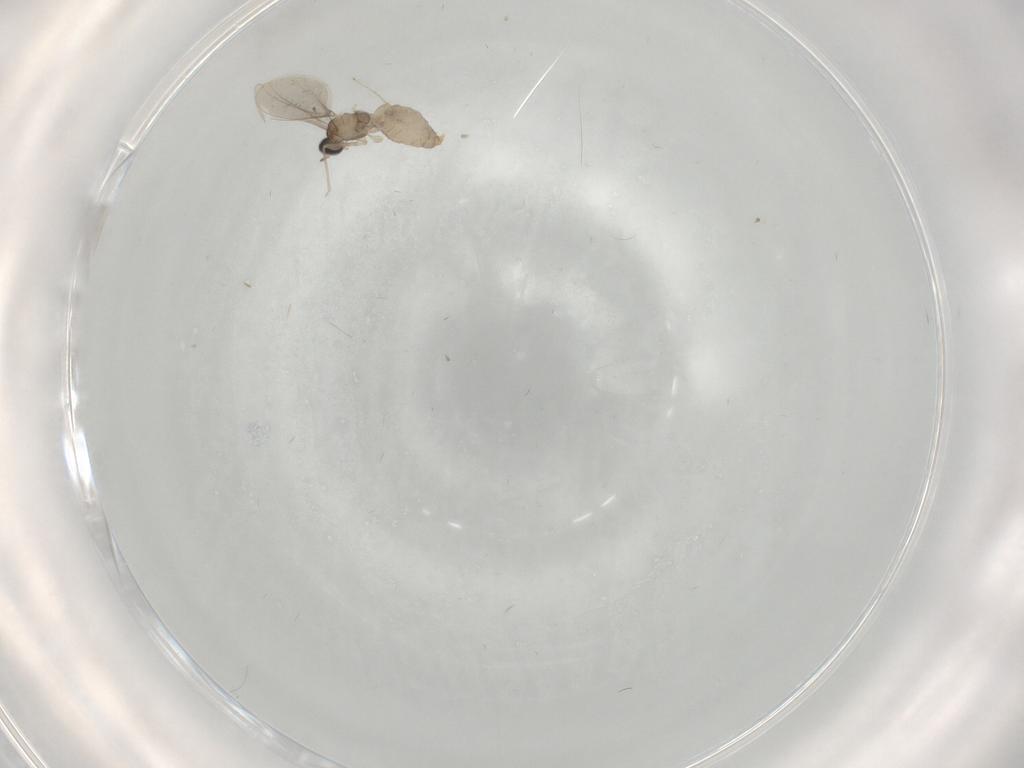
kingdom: Animalia
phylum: Arthropoda
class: Insecta
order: Diptera
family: Cecidomyiidae
